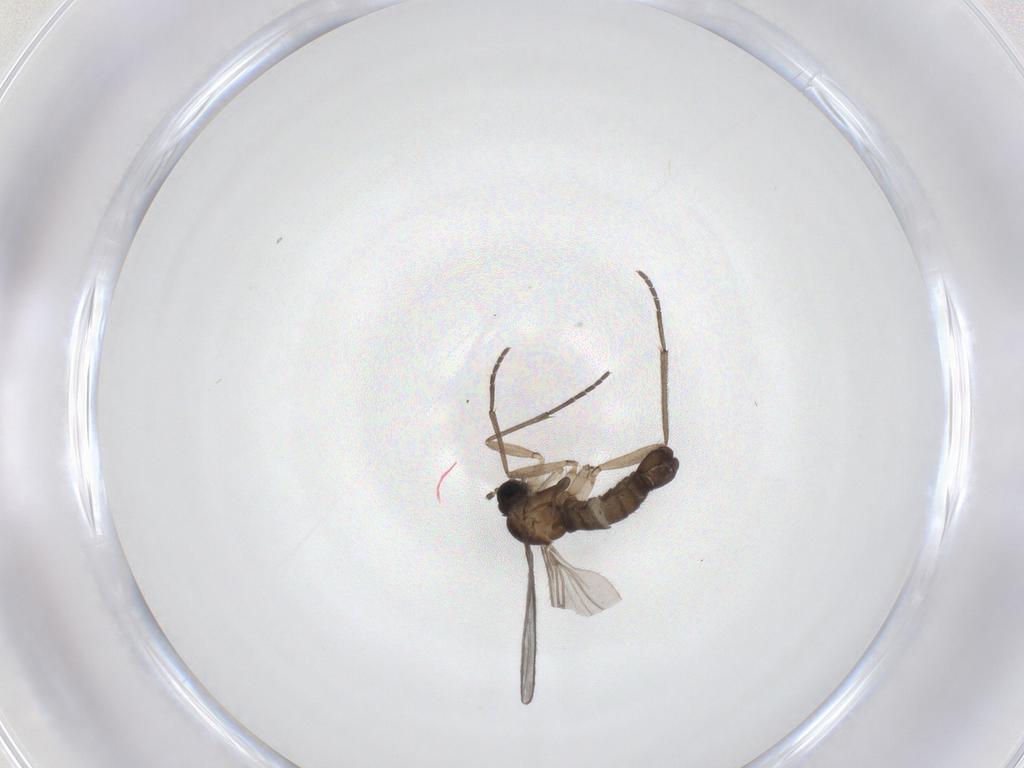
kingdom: Animalia
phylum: Arthropoda
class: Insecta
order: Diptera
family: Sciaridae
